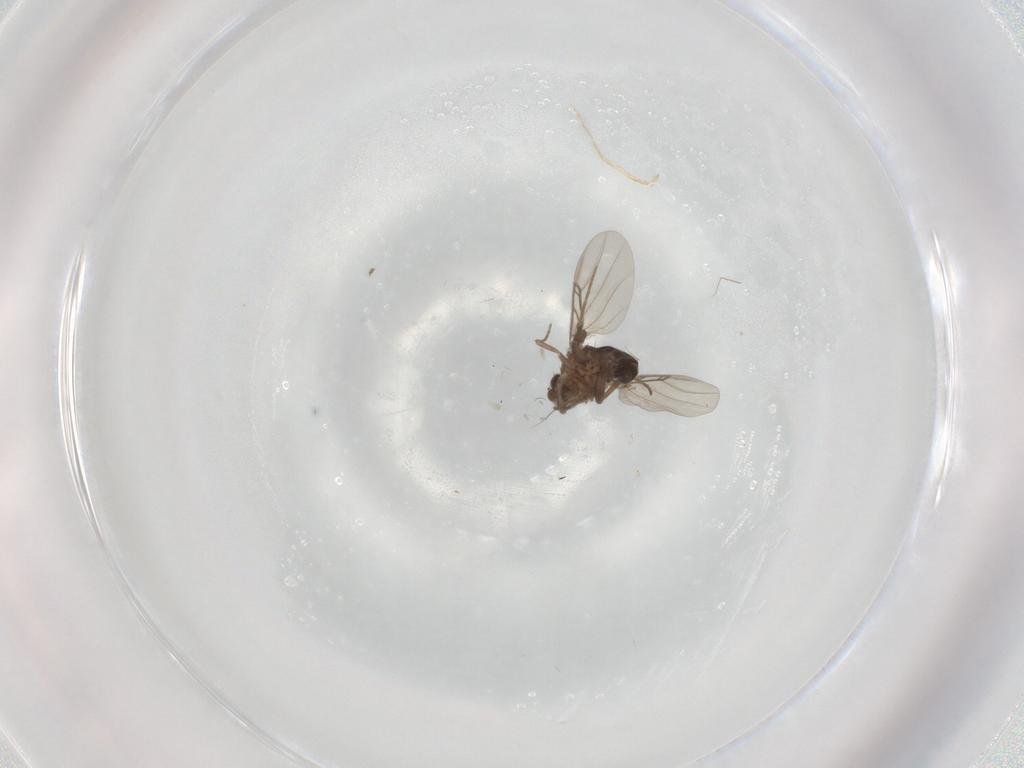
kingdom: Animalia
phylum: Arthropoda
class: Insecta
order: Diptera
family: Phoridae
